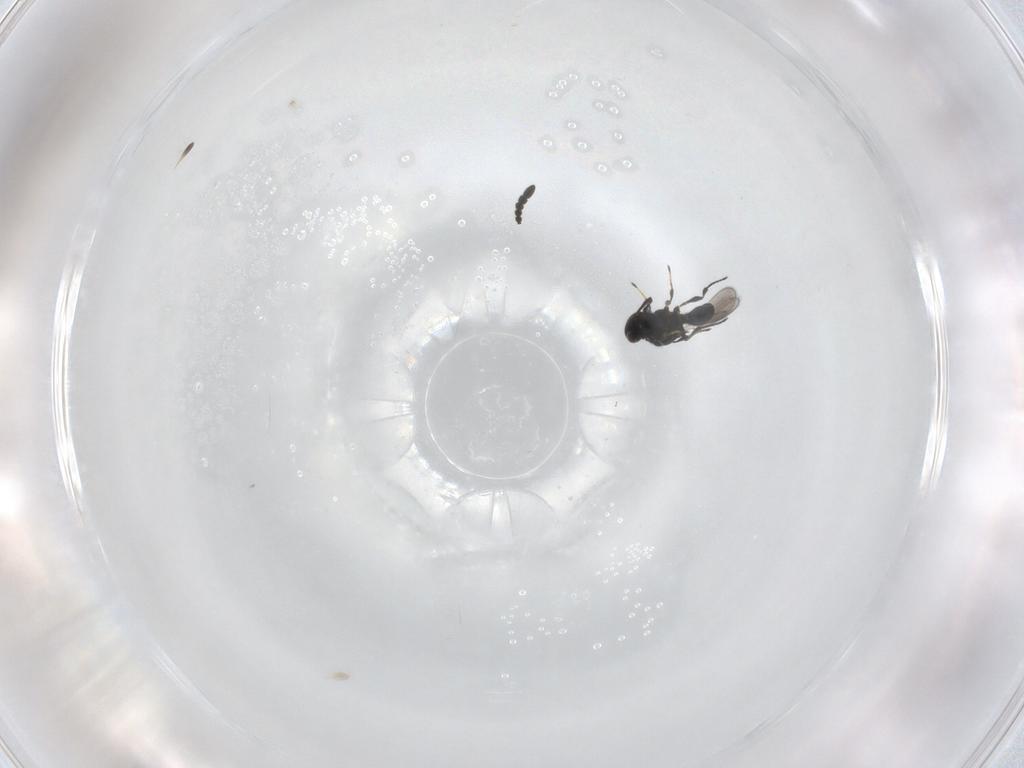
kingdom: Animalia
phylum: Arthropoda
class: Insecta
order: Hymenoptera
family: Platygastridae
